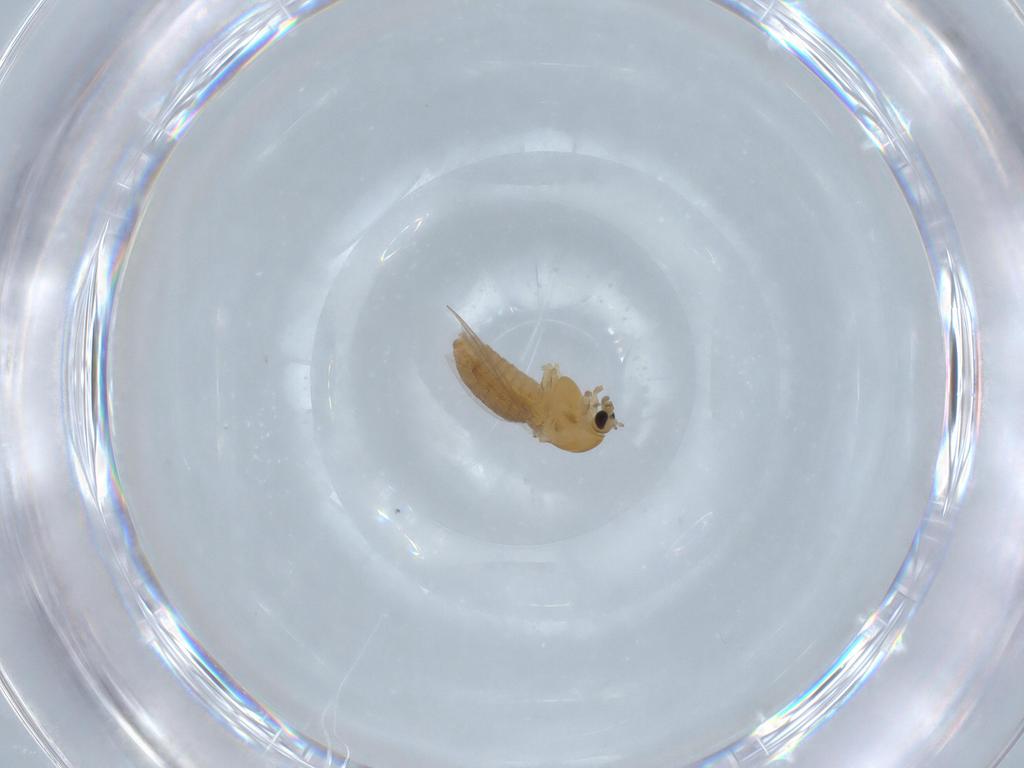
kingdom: Animalia
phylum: Arthropoda
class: Insecta
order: Diptera
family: Chironomidae
